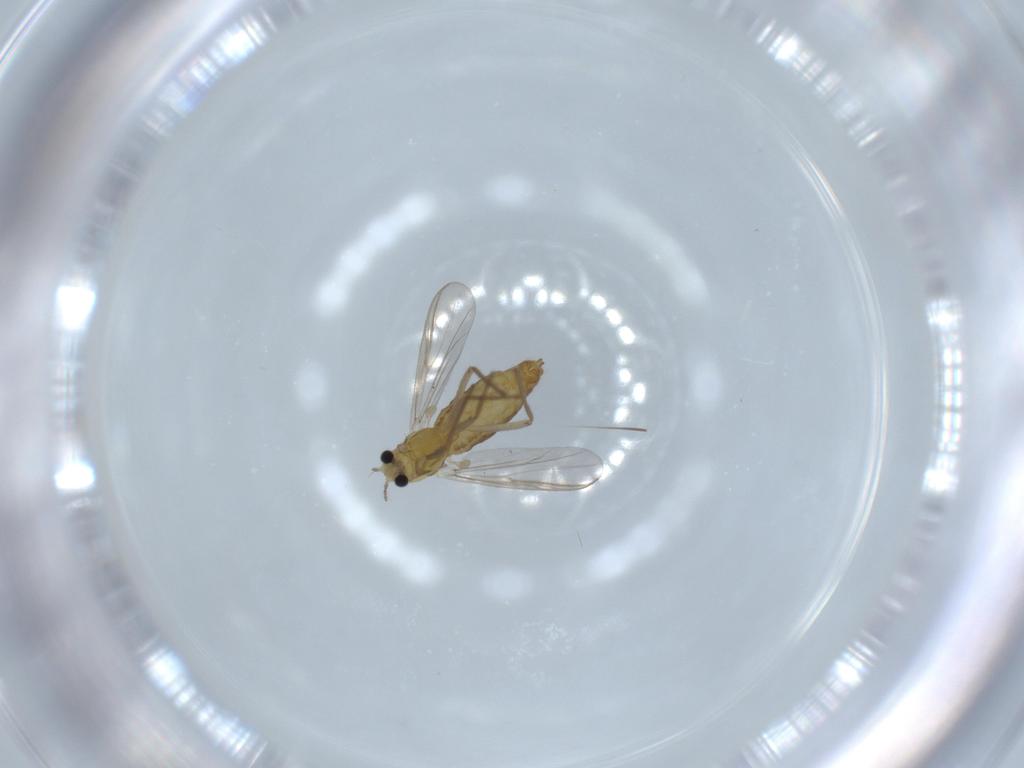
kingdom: Animalia
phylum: Arthropoda
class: Insecta
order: Diptera
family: Chironomidae
